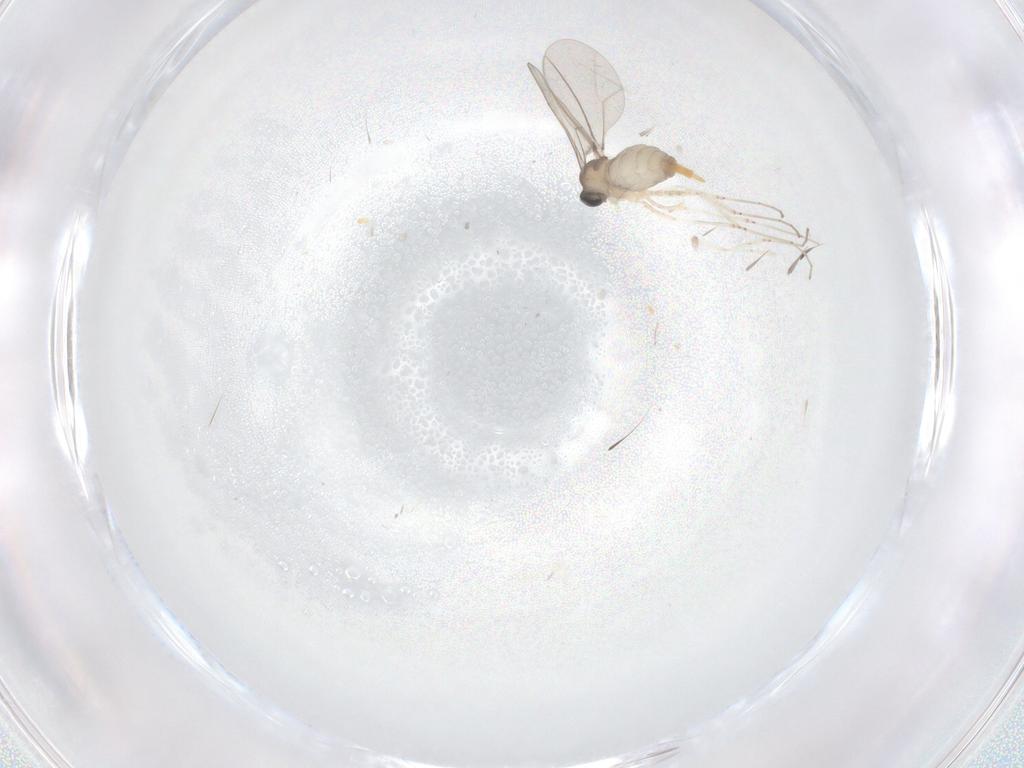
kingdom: Animalia
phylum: Arthropoda
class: Insecta
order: Diptera
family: Cecidomyiidae
